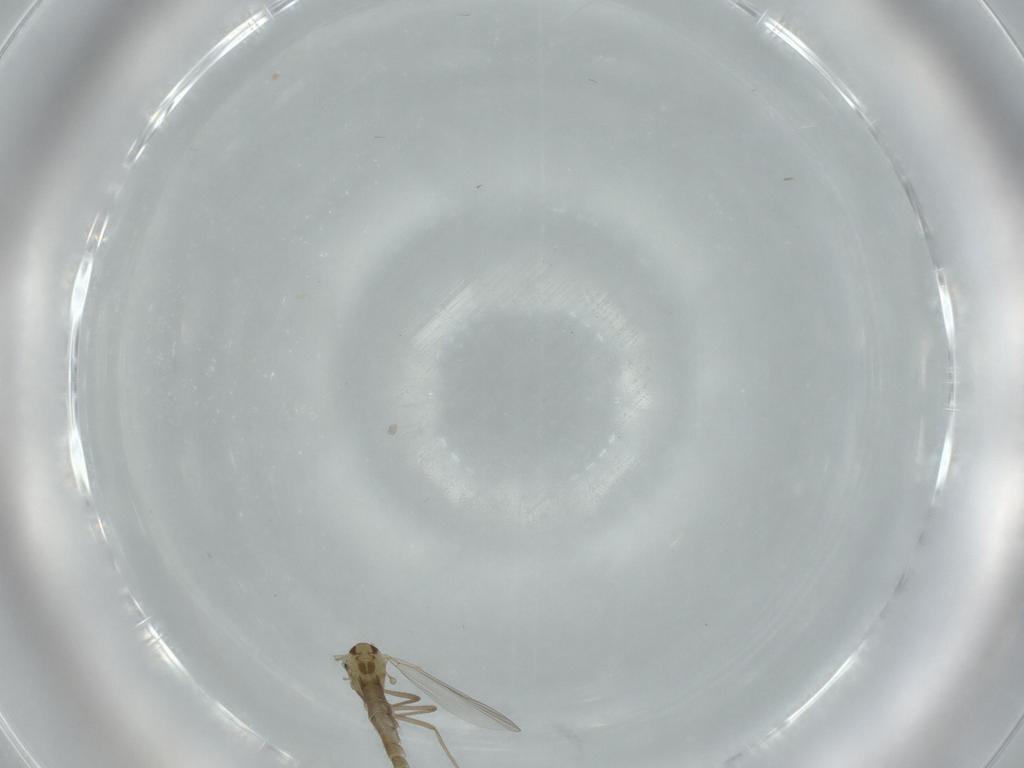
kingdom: Animalia
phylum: Arthropoda
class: Insecta
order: Diptera
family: Chironomidae
